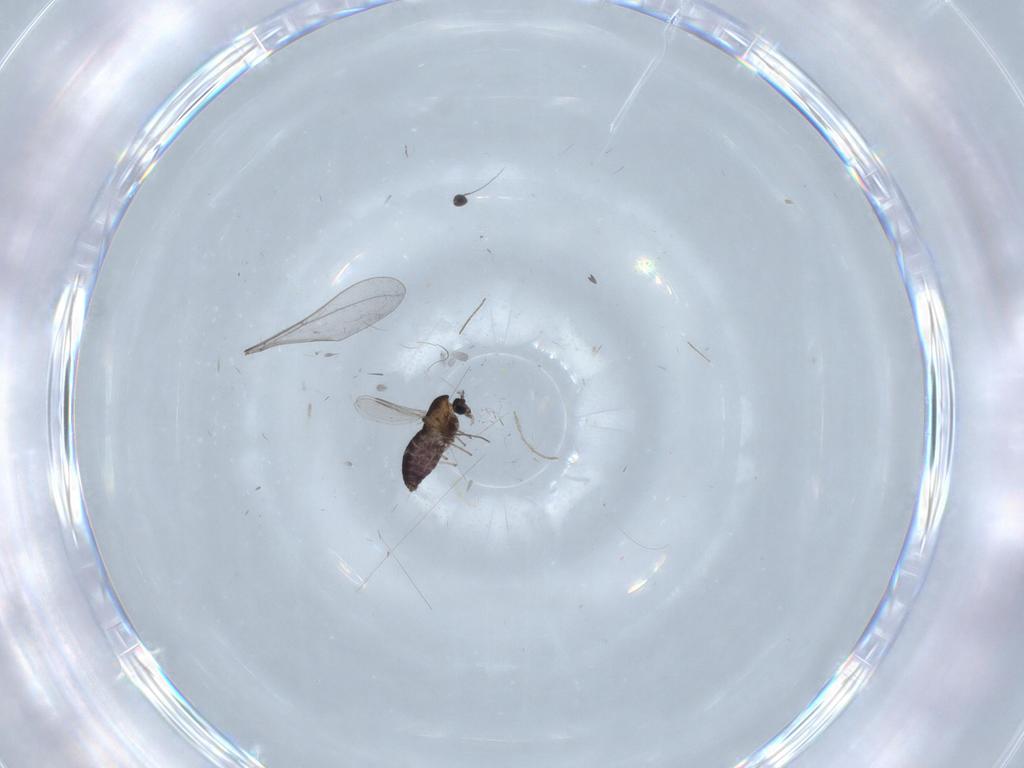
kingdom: Animalia
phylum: Arthropoda
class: Insecta
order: Diptera
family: Chironomidae
